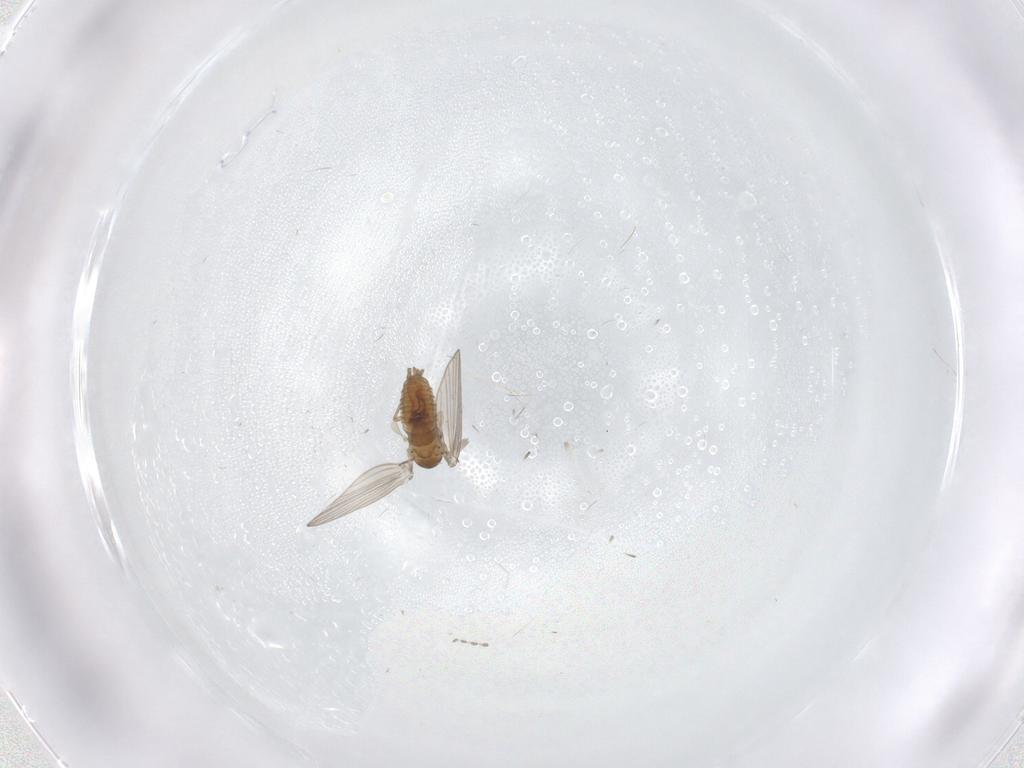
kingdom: Animalia
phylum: Arthropoda
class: Insecta
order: Diptera
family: Psychodidae
